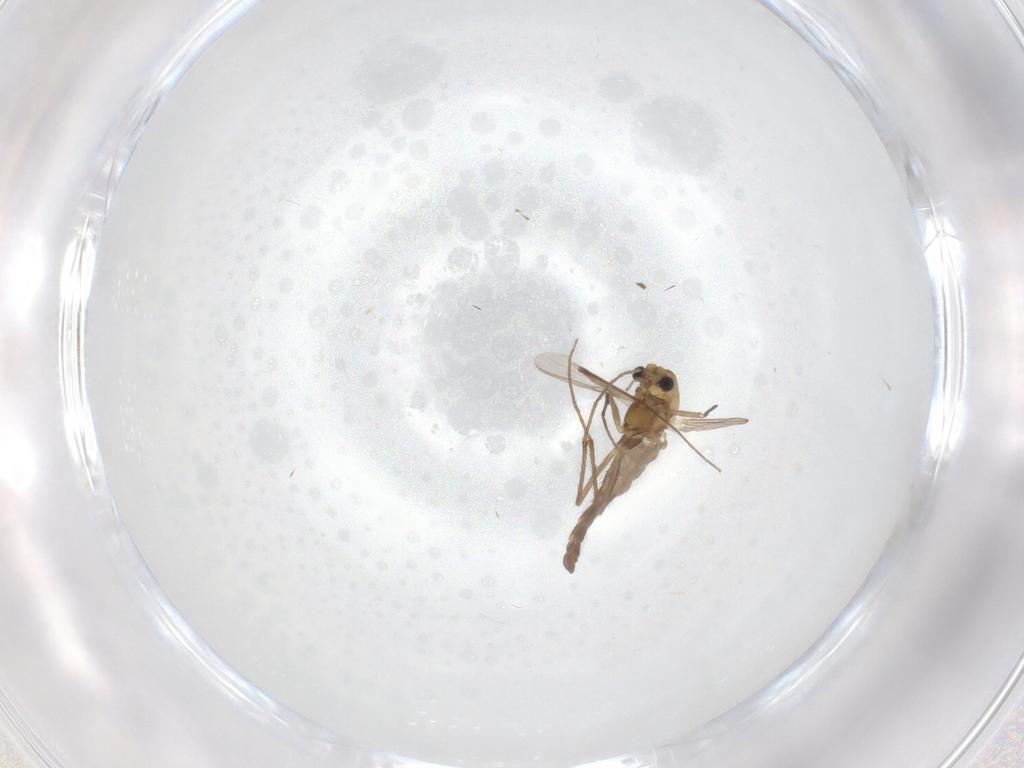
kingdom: Animalia
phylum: Arthropoda
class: Insecta
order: Diptera
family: Chironomidae
